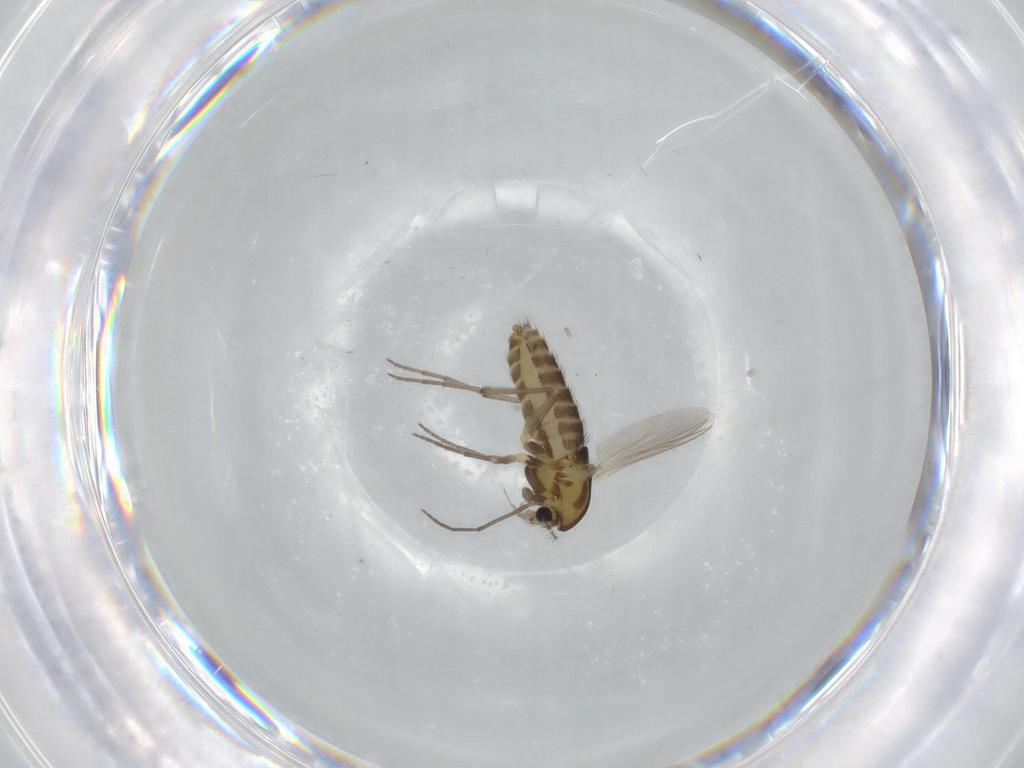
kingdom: Animalia
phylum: Arthropoda
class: Insecta
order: Diptera
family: Chironomidae
